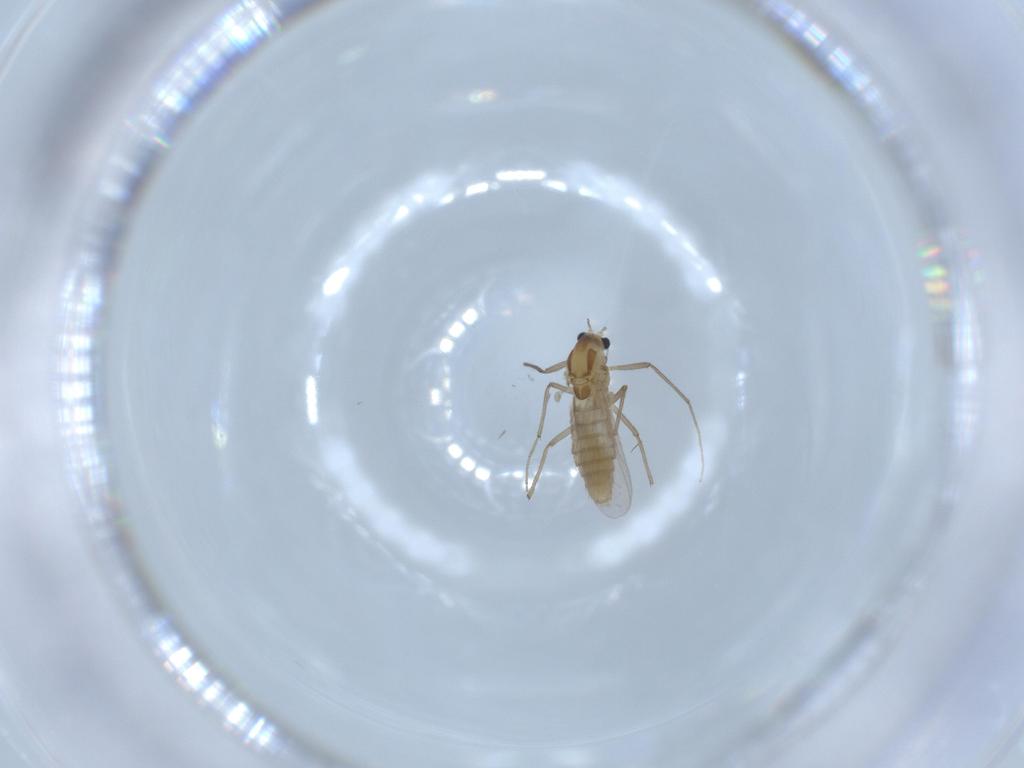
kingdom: Animalia
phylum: Arthropoda
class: Insecta
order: Diptera
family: Chironomidae
